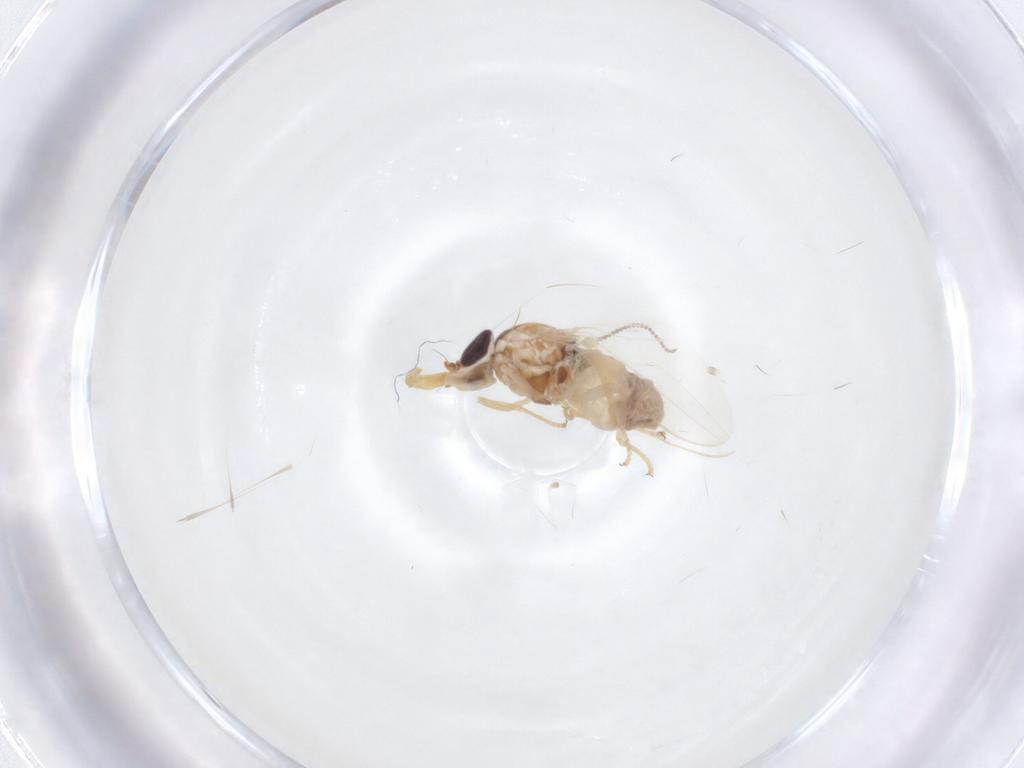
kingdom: Animalia
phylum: Arthropoda
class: Insecta
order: Diptera
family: Chloropidae
